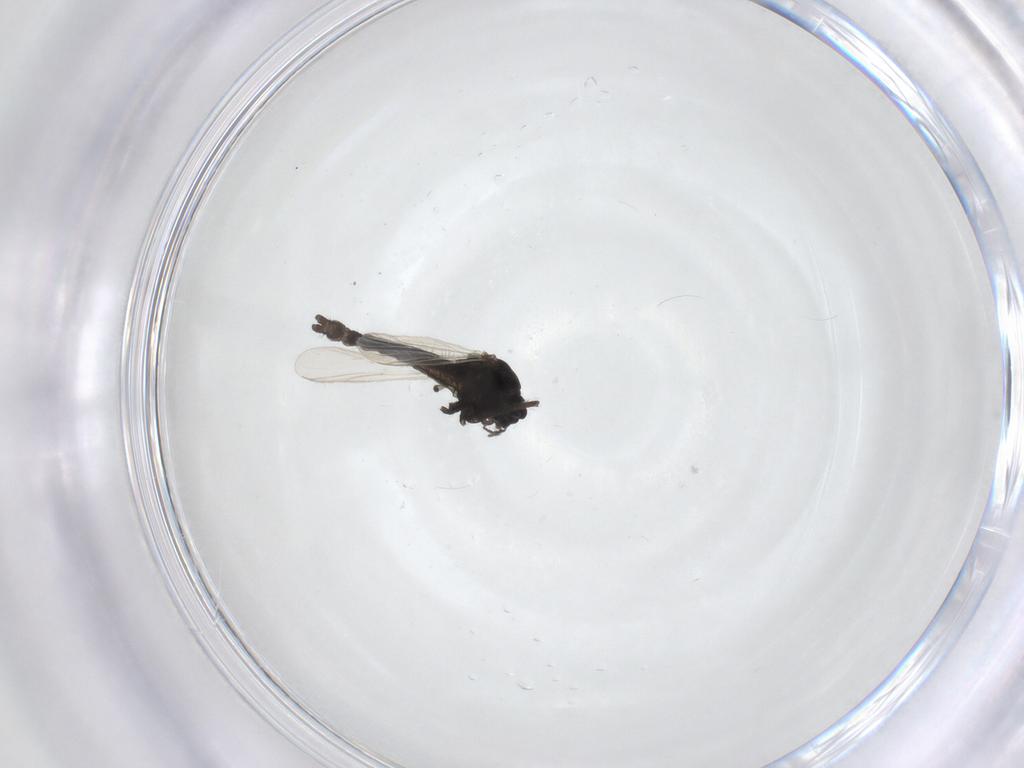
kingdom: Animalia
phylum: Arthropoda
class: Insecta
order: Diptera
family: Chironomidae
